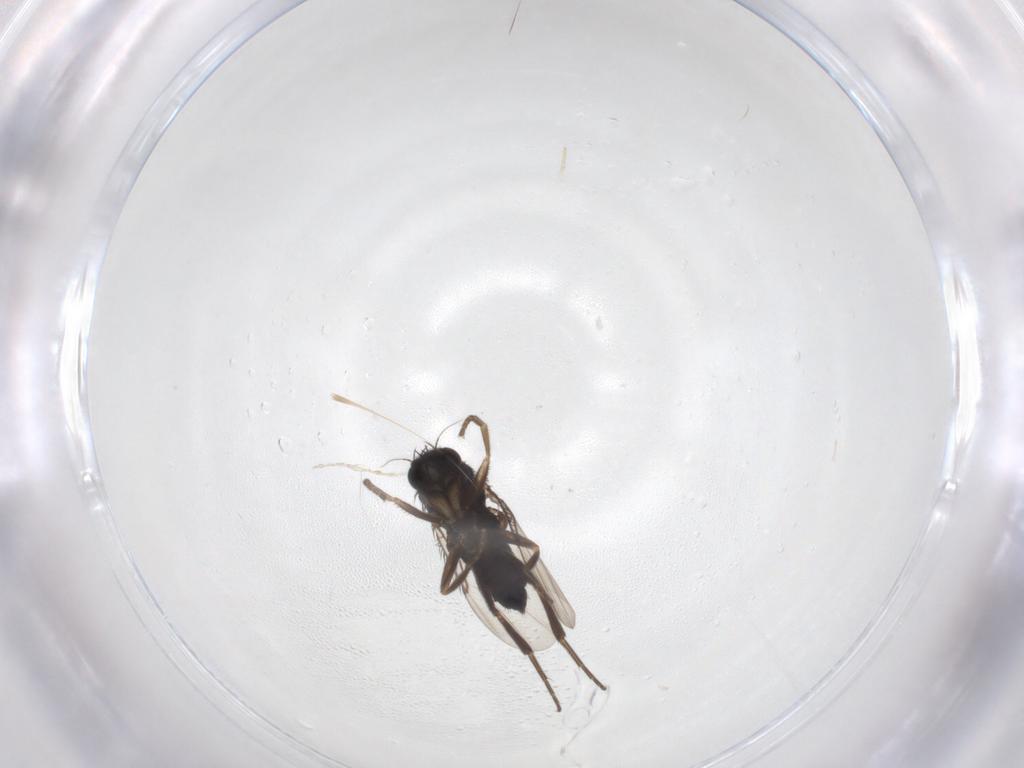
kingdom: Animalia
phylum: Arthropoda
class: Insecta
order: Diptera
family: Phoridae
